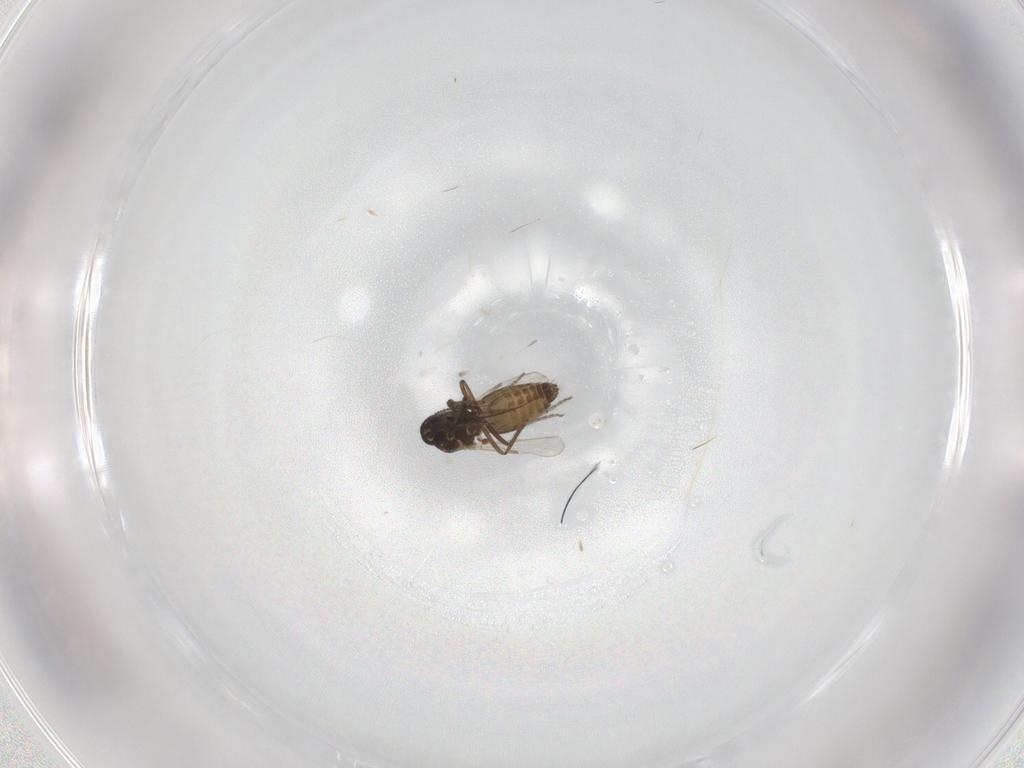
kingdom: Animalia
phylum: Arthropoda
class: Insecta
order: Diptera
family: Ceratopogonidae
